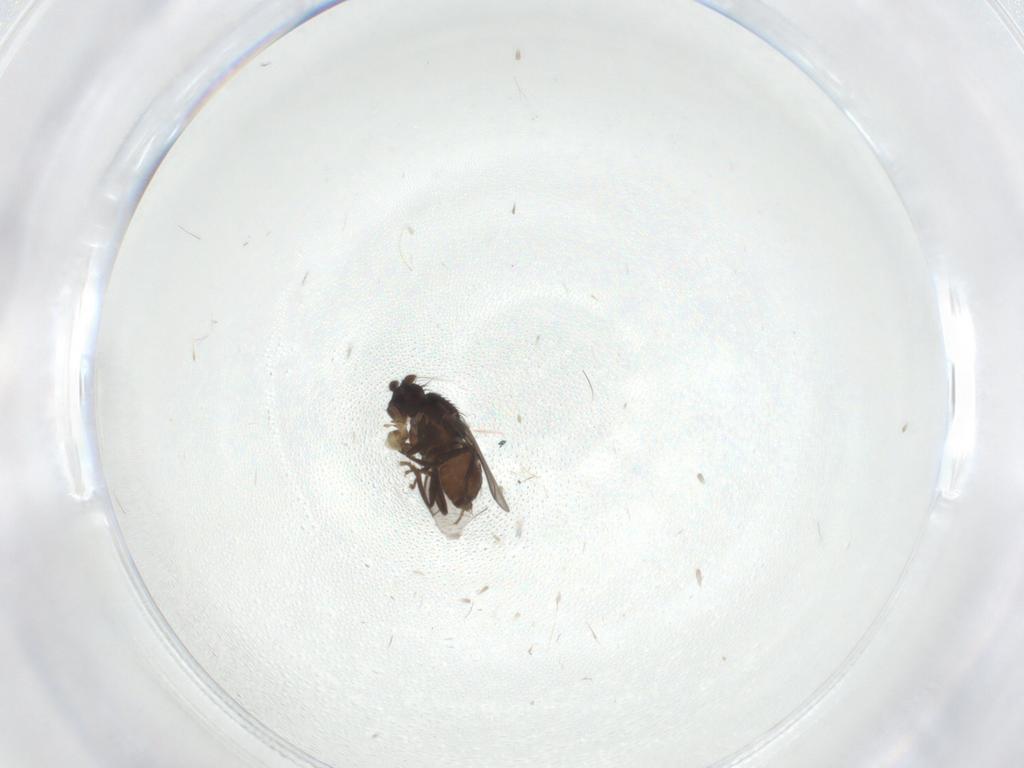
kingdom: Animalia
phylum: Arthropoda
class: Insecta
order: Diptera
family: Sphaeroceridae
